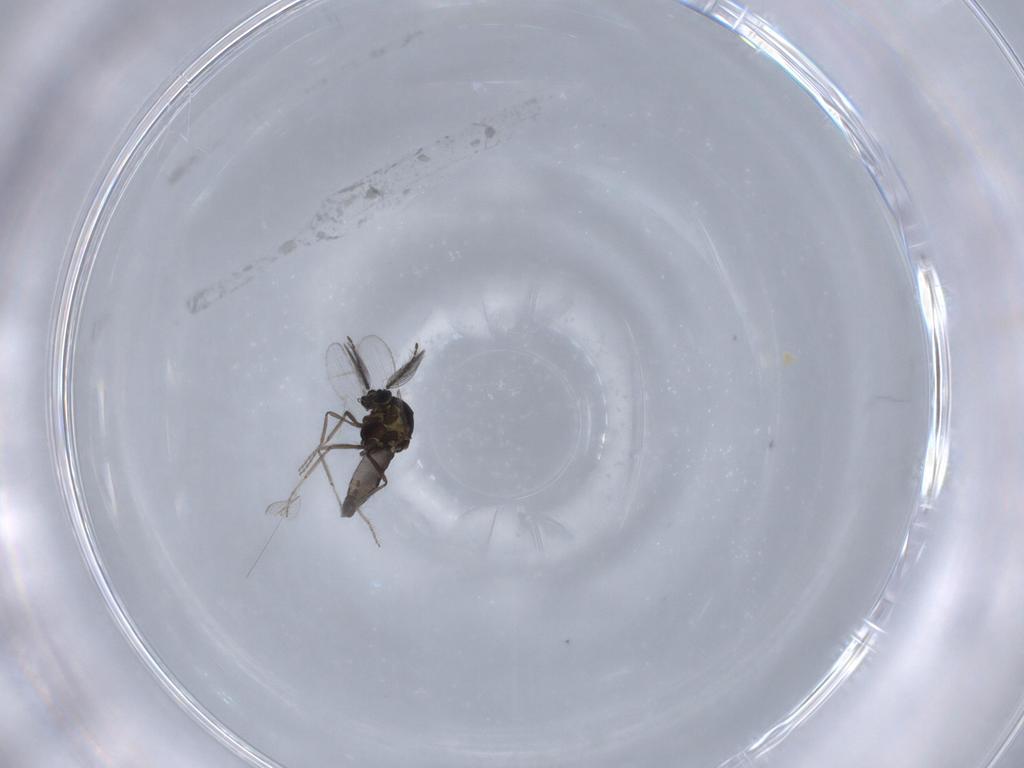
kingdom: Animalia
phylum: Arthropoda
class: Insecta
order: Diptera
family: Ceratopogonidae
